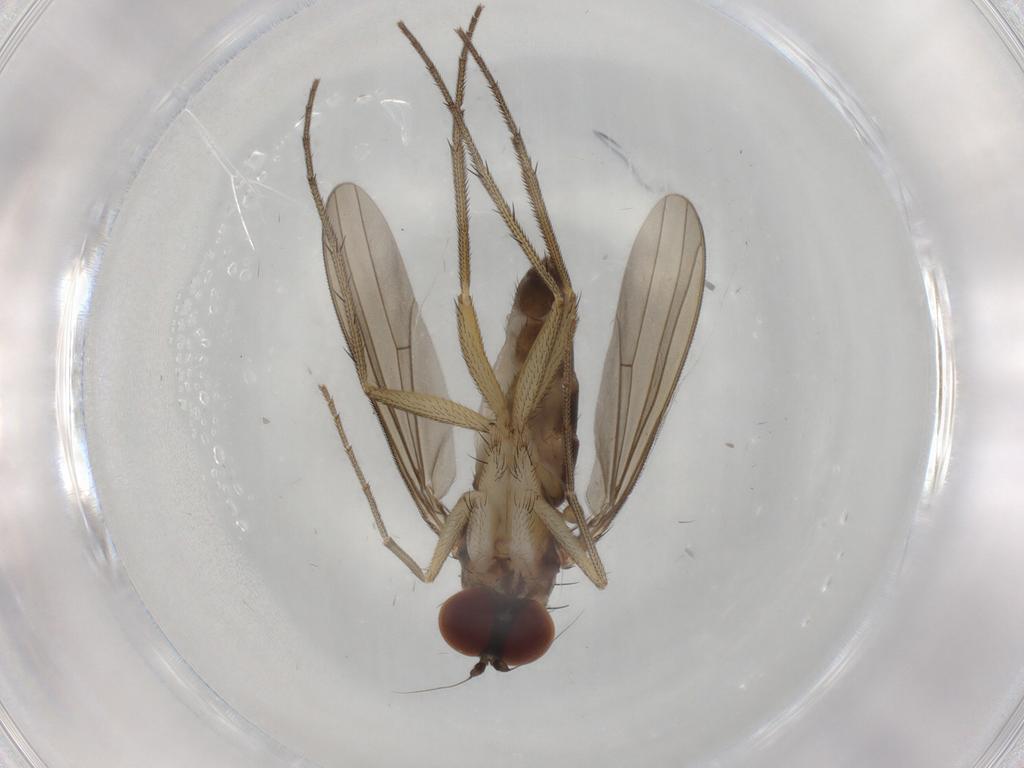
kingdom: Animalia
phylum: Arthropoda
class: Insecta
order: Diptera
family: Dolichopodidae
